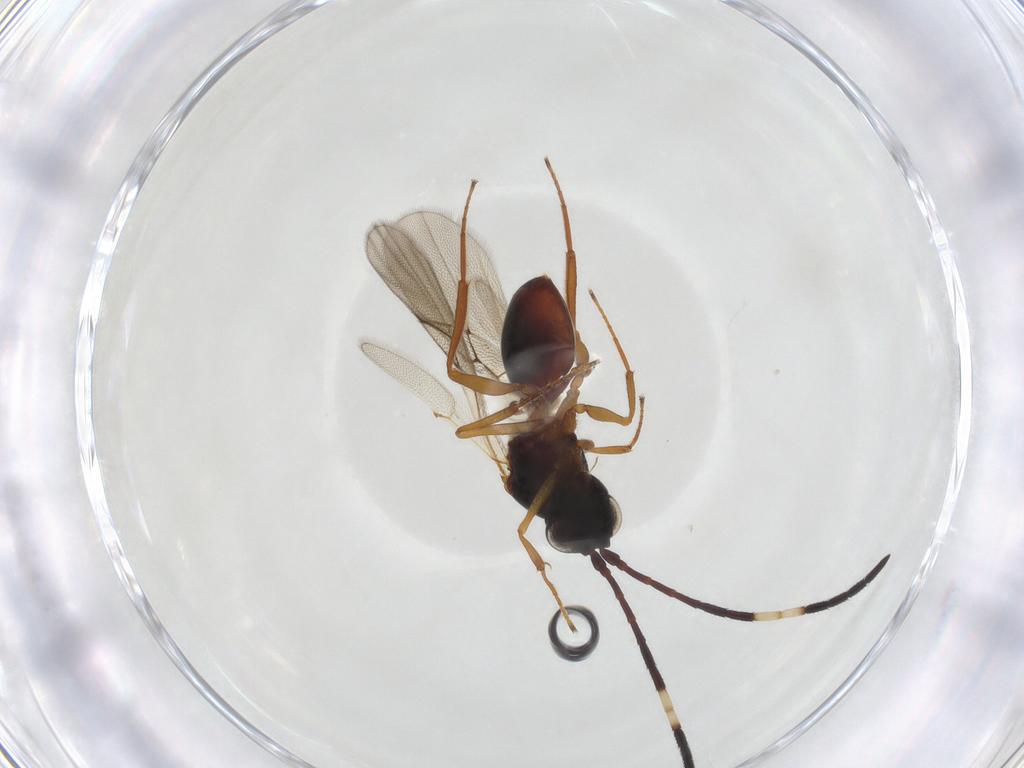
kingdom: Animalia
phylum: Arthropoda
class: Insecta
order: Hymenoptera
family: Figitidae
